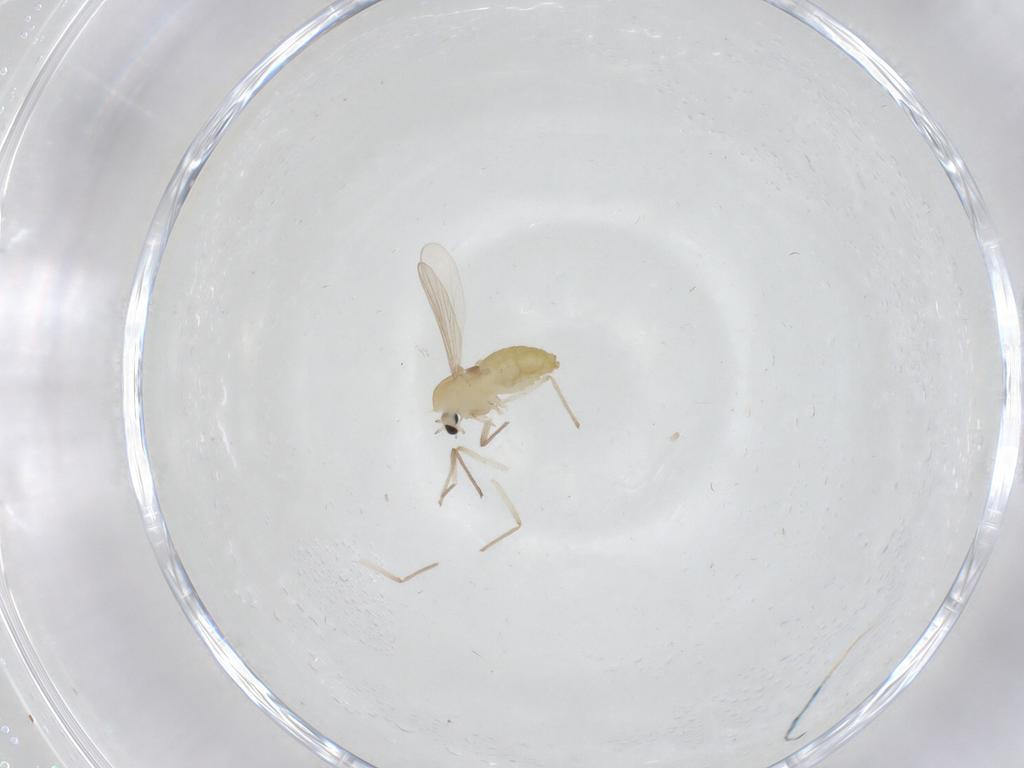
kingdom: Animalia
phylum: Arthropoda
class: Insecta
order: Diptera
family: Chironomidae
